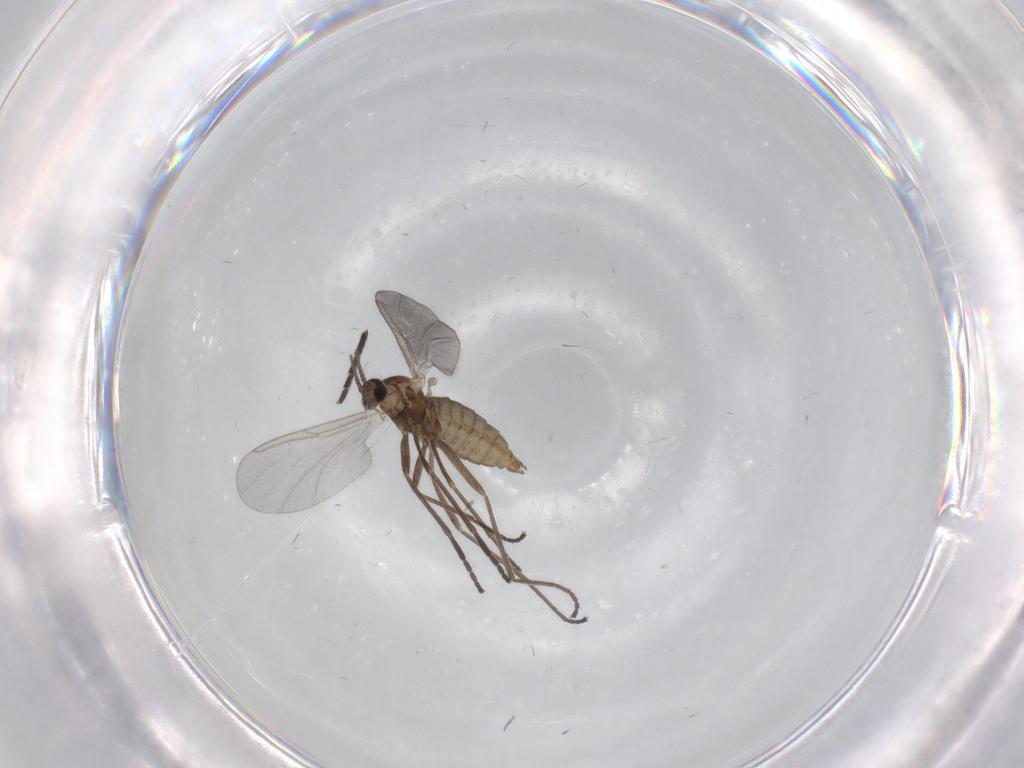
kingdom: Animalia
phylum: Arthropoda
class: Insecta
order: Diptera
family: Cecidomyiidae
